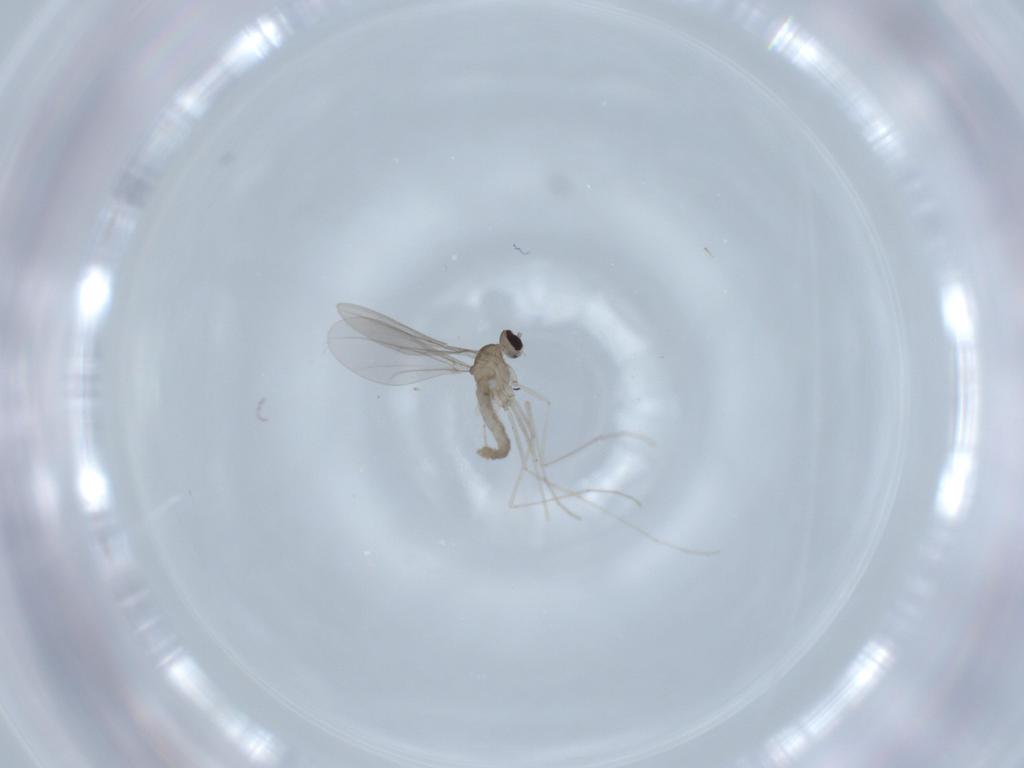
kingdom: Animalia
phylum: Arthropoda
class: Insecta
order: Diptera
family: Cecidomyiidae
